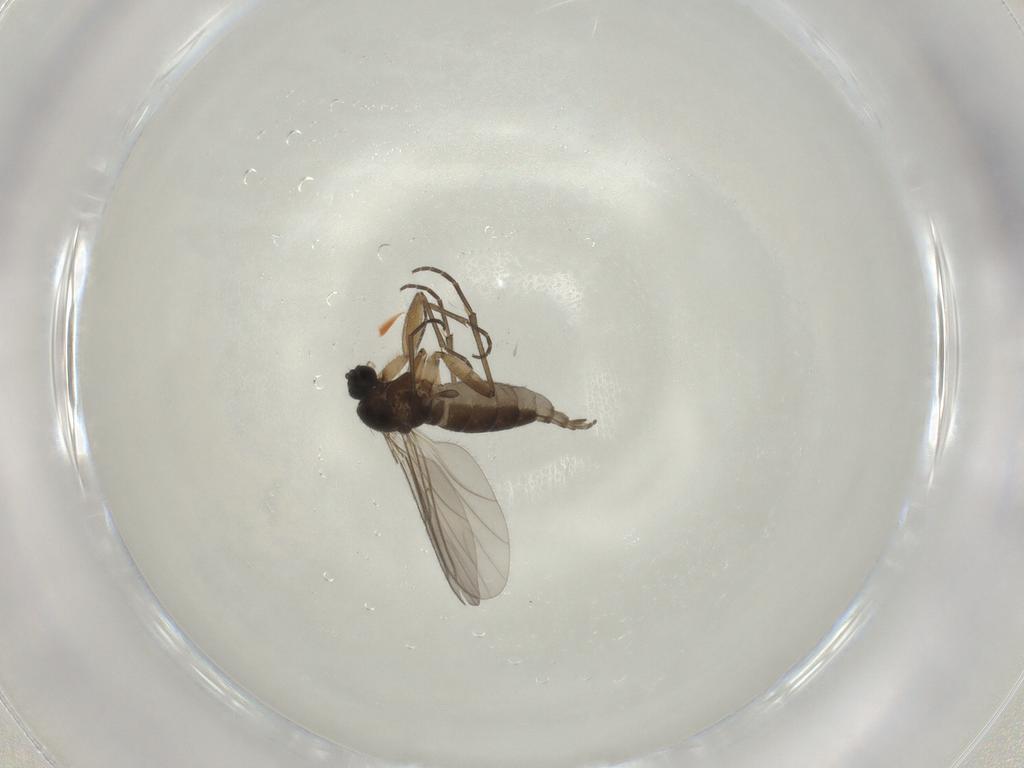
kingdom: Animalia
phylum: Arthropoda
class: Insecta
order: Diptera
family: Sciaridae
